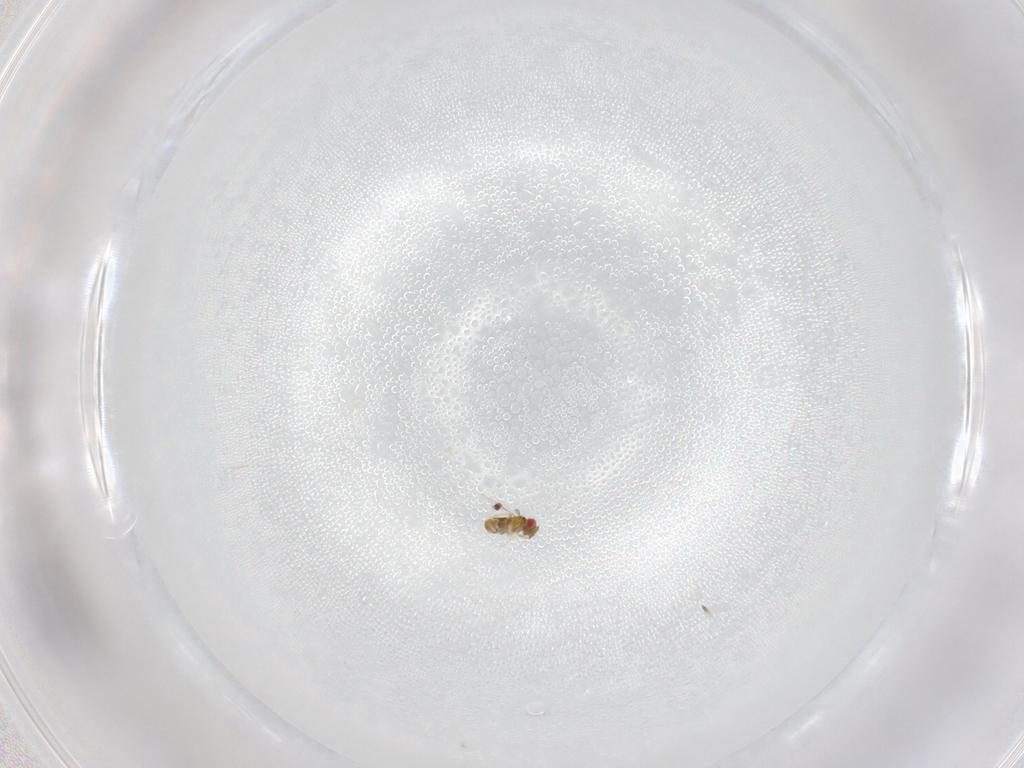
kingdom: Animalia
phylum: Arthropoda
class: Insecta
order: Hymenoptera
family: Trichogrammatidae
